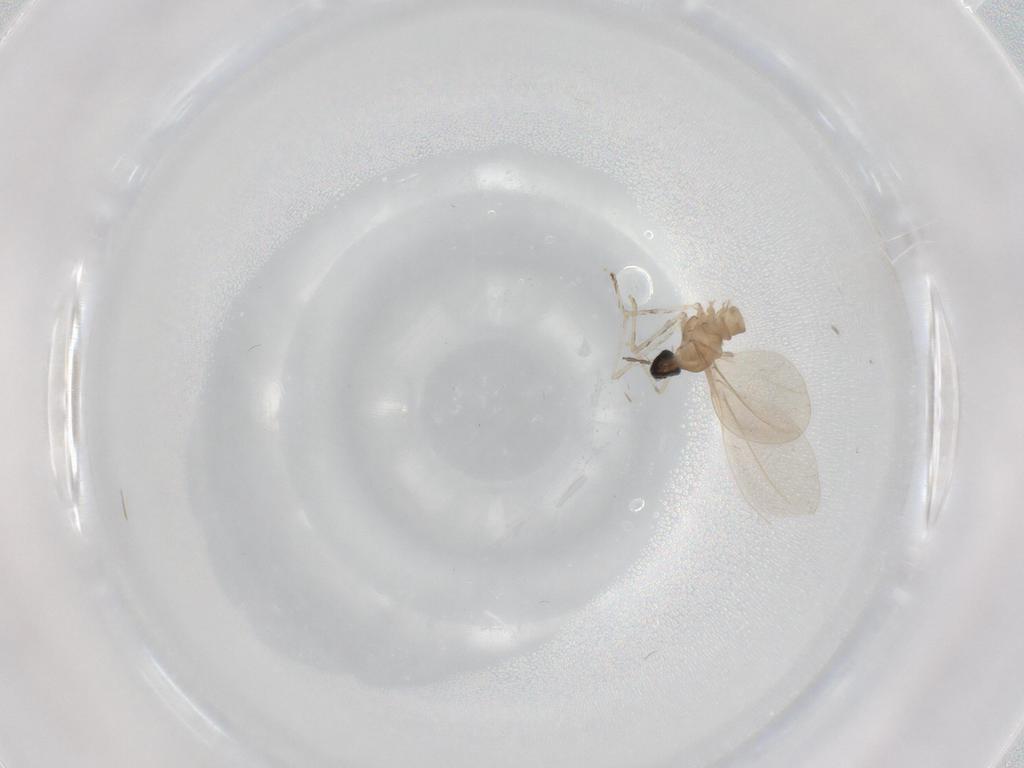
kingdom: Animalia
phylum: Arthropoda
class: Insecta
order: Diptera
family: Cecidomyiidae
